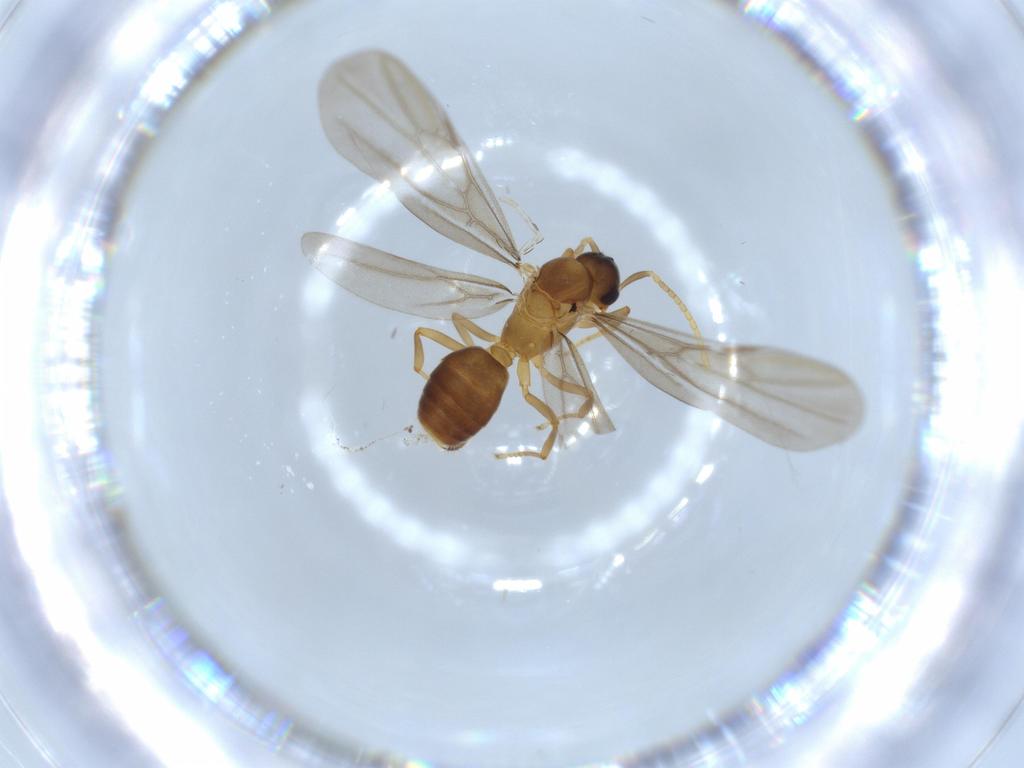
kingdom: Animalia
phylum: Arthropoda
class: Insecta
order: Hymenoptera
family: Formicidae
